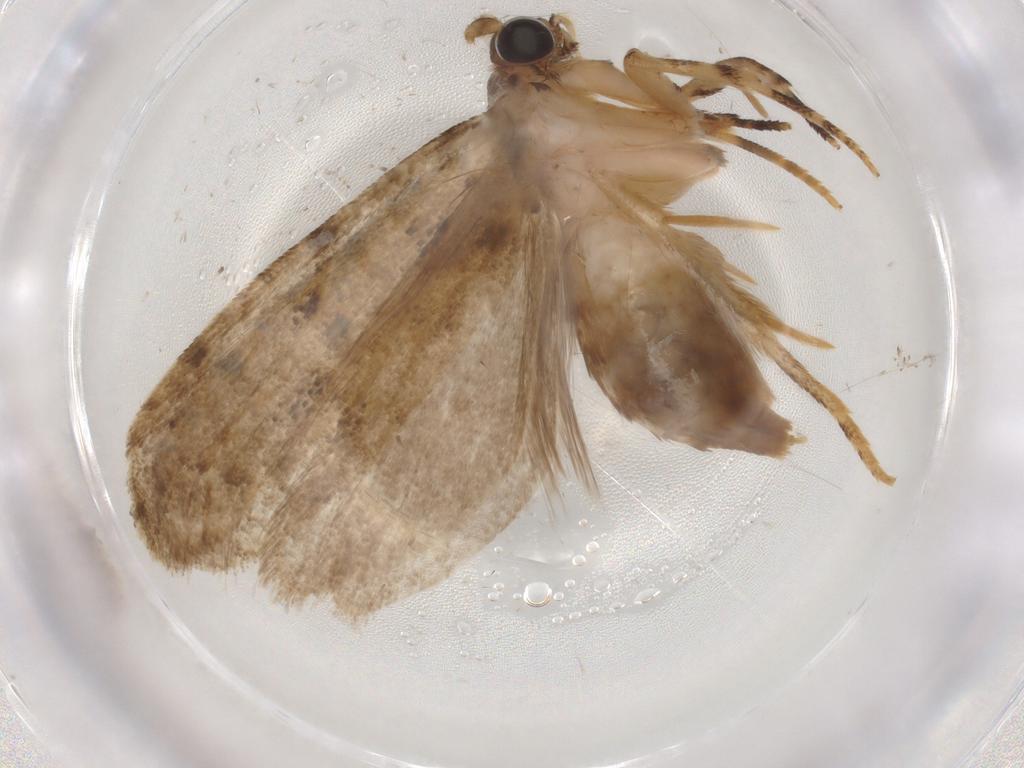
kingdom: Animalia
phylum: Arthropoda
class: Insecta
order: Lepidoptera
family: Gelechiidae
